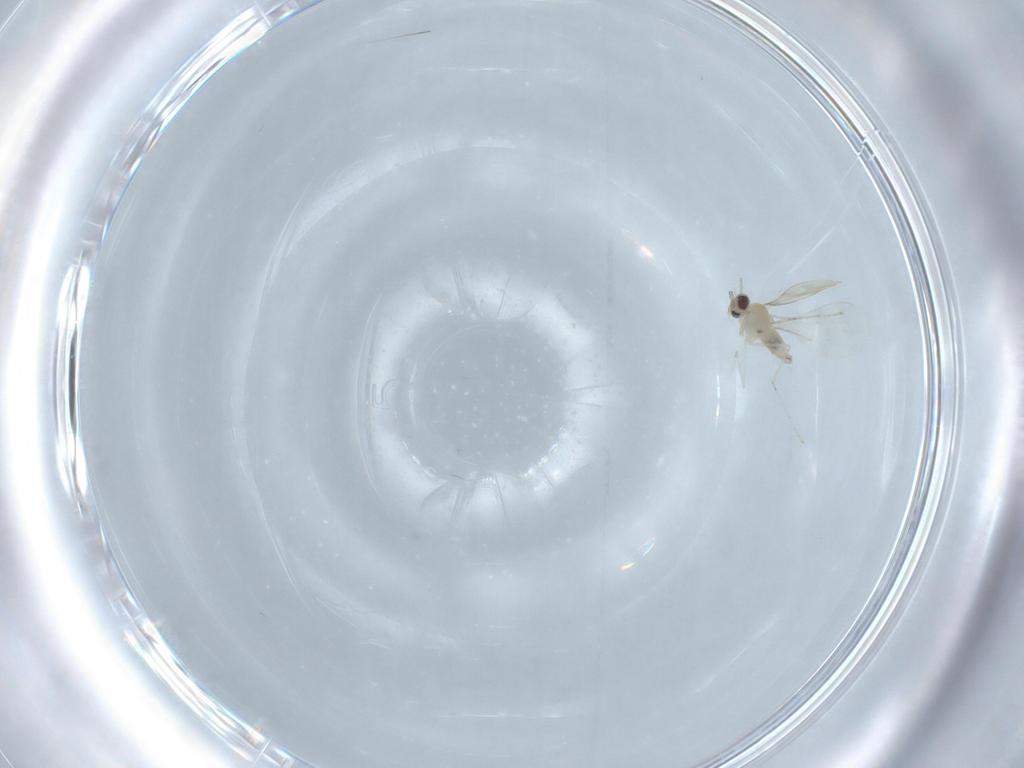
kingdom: Animalia
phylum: Arthropoda
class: Insecta
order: Diptera
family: Cecidomyiidae
